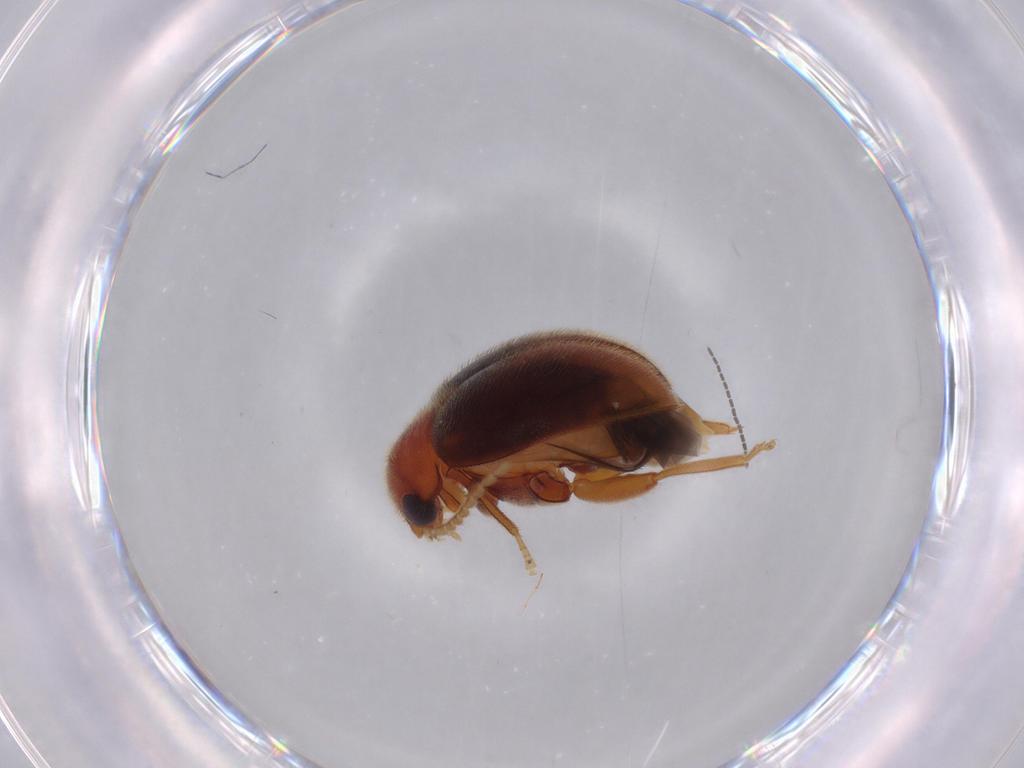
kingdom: Animalia
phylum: Arthropoda
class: Insecta
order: Coleoptera
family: Scirtidae
